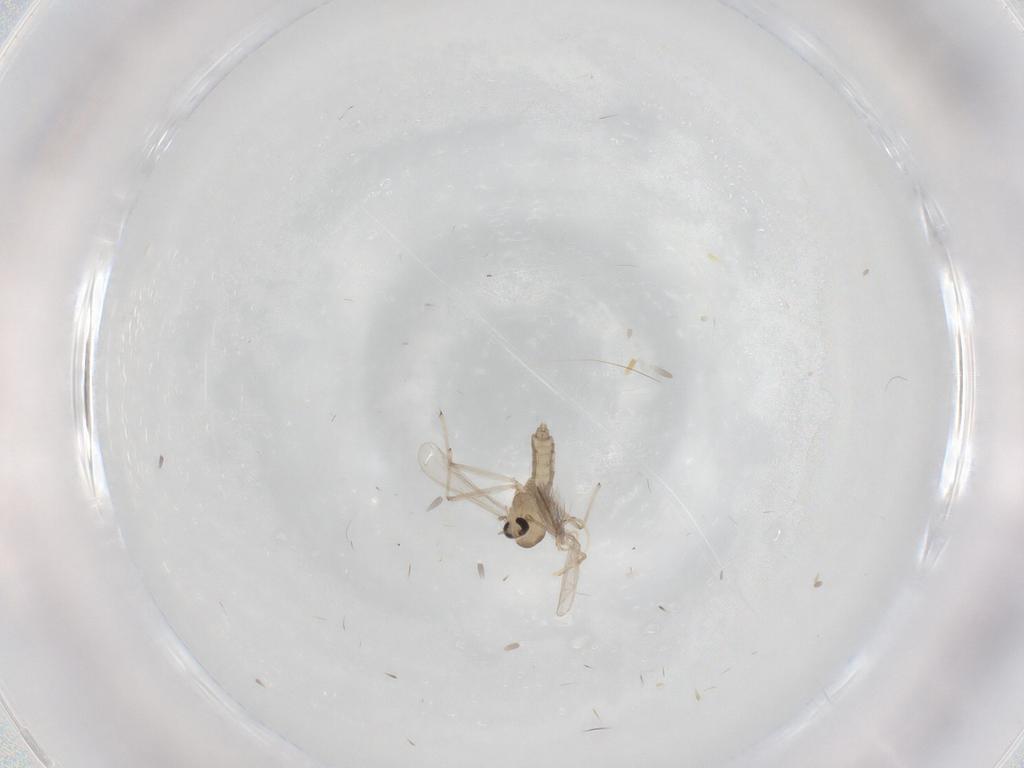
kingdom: Animalia
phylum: Arthropoda
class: Insecta
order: Diptera
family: Chironomidae
